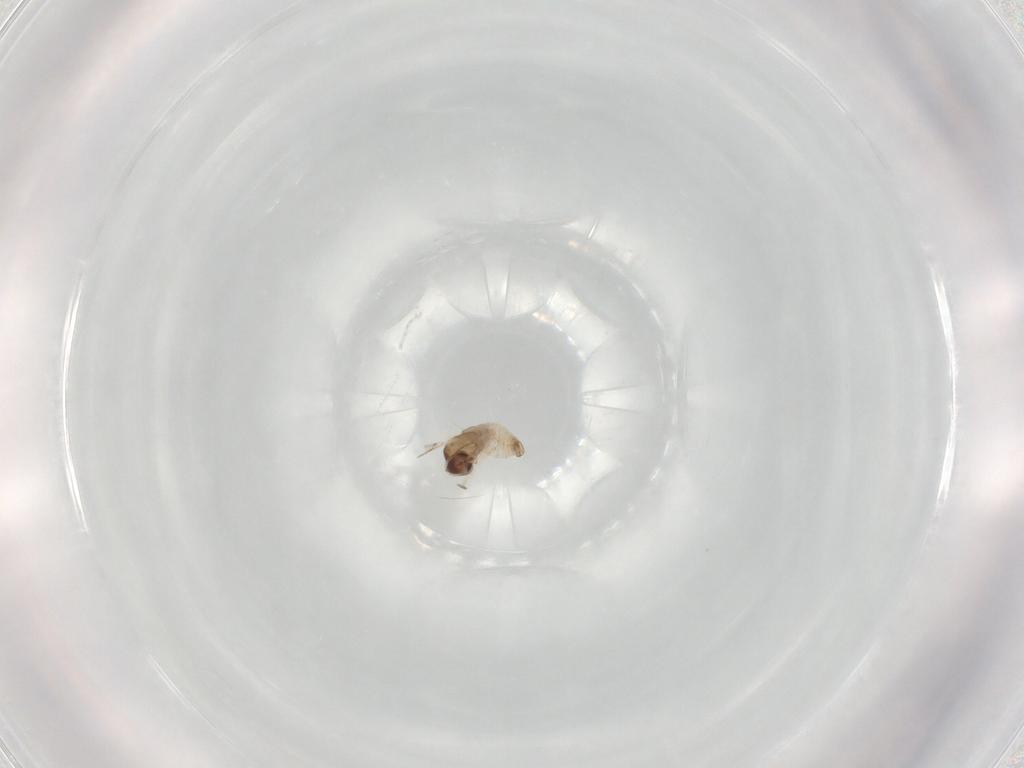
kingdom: Animalia
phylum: Arthropoda
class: Insecta
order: Diptera
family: Cecidomyiidae
